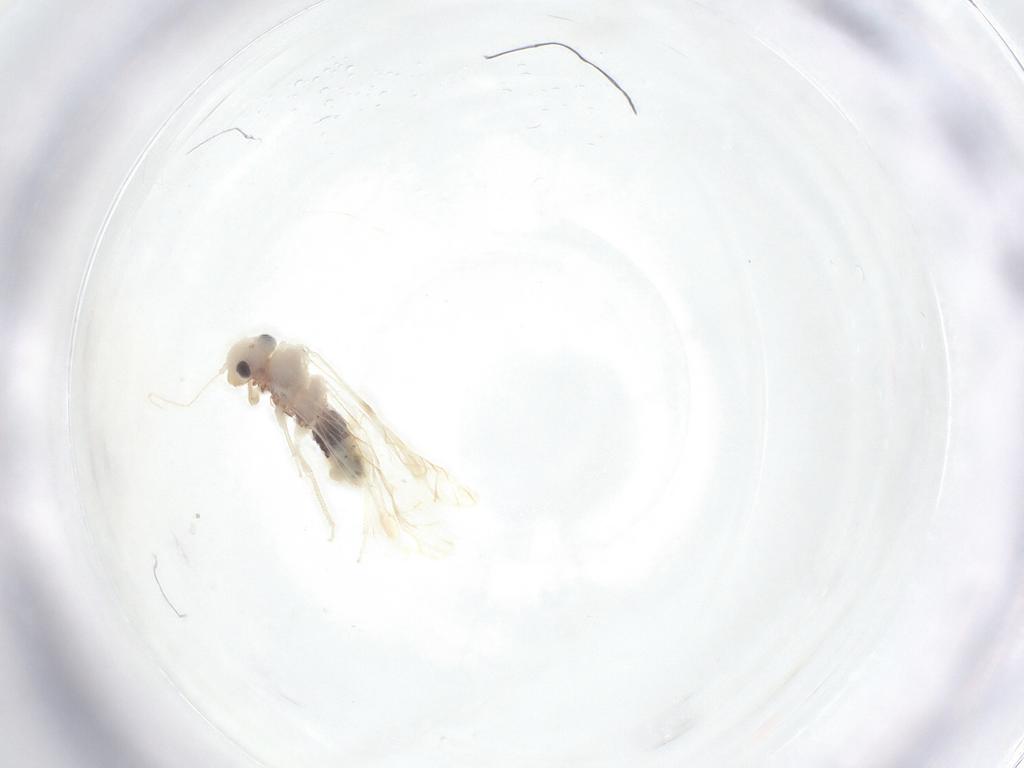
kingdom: Animalia
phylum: Arthropoda
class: Insecta
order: Psocodea
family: Pseudocaeciliidae
